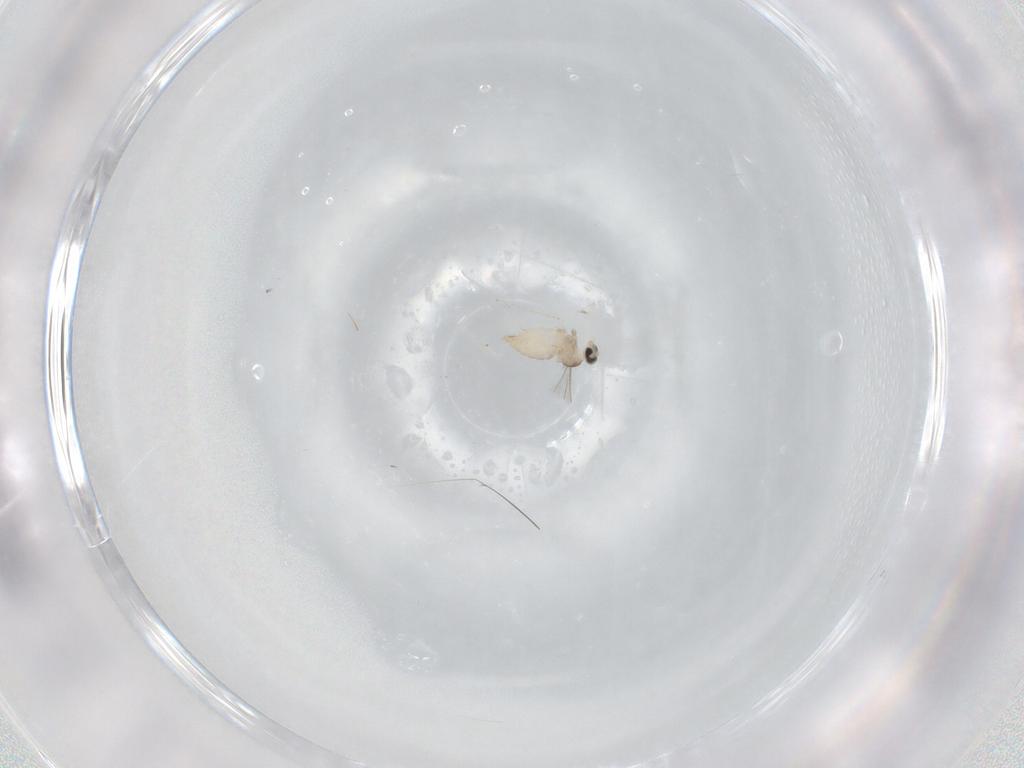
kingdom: Animalia
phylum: Arthropoda
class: Insecta
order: Diptera
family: Cecidomyiidae
